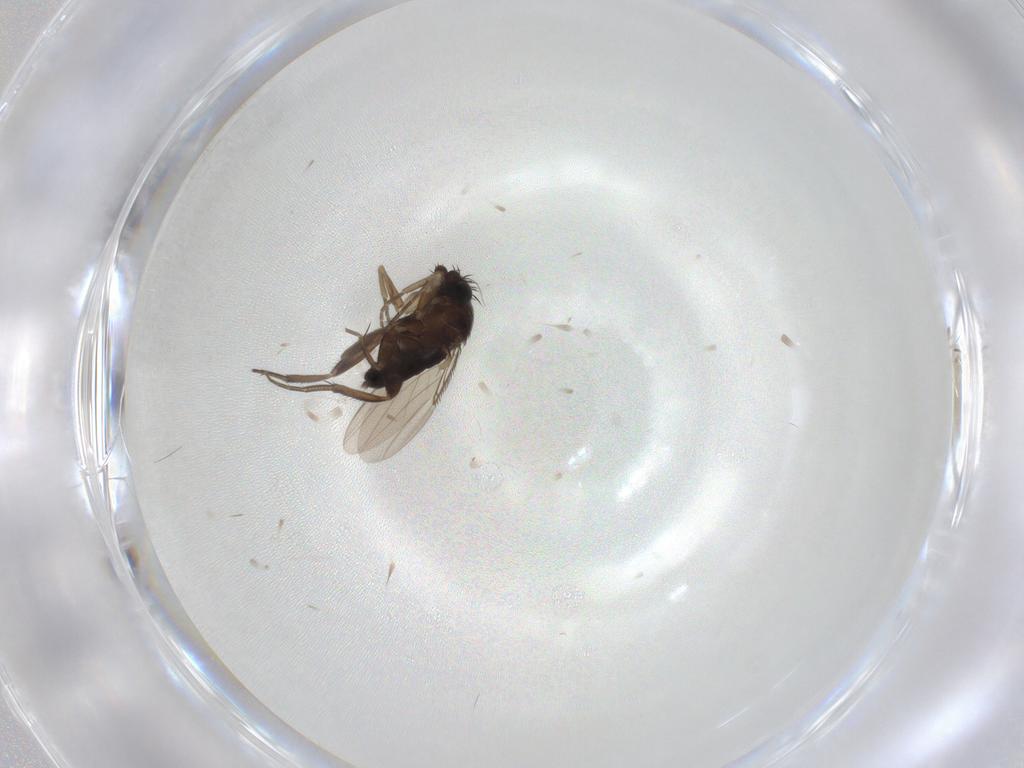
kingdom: Animalia
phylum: Arthropoda
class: Insecta
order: Diptera
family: Phoridae
